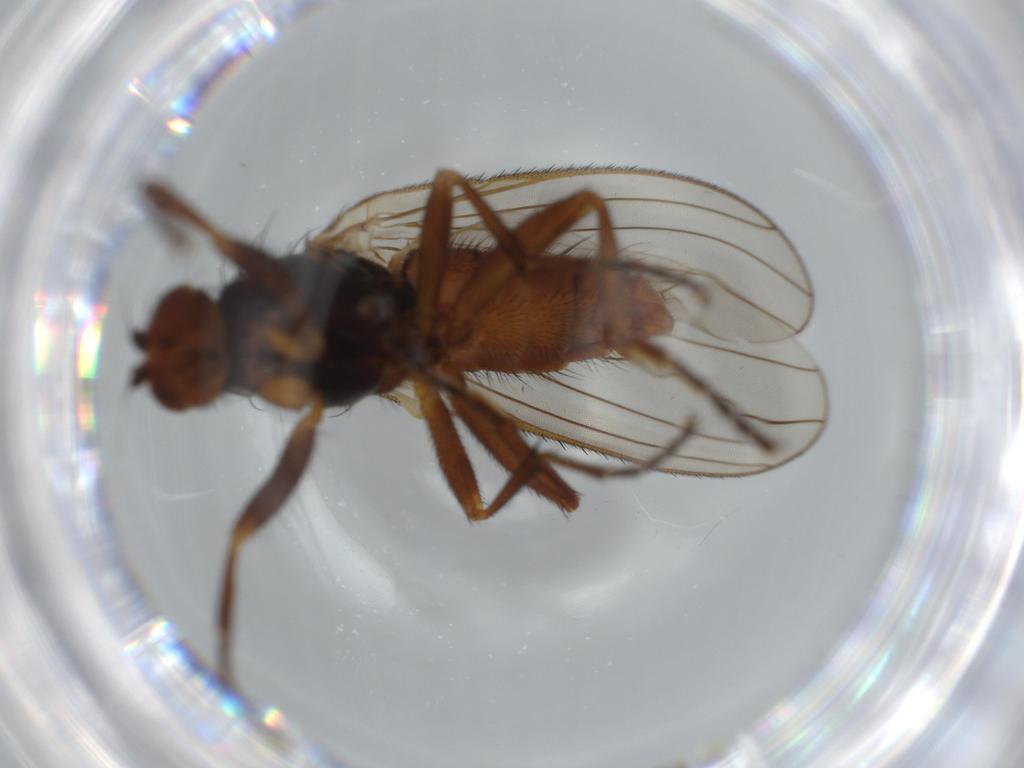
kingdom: Animalia
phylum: Arthropoda
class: Insecta
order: Diptera
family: Heleomyzidae
